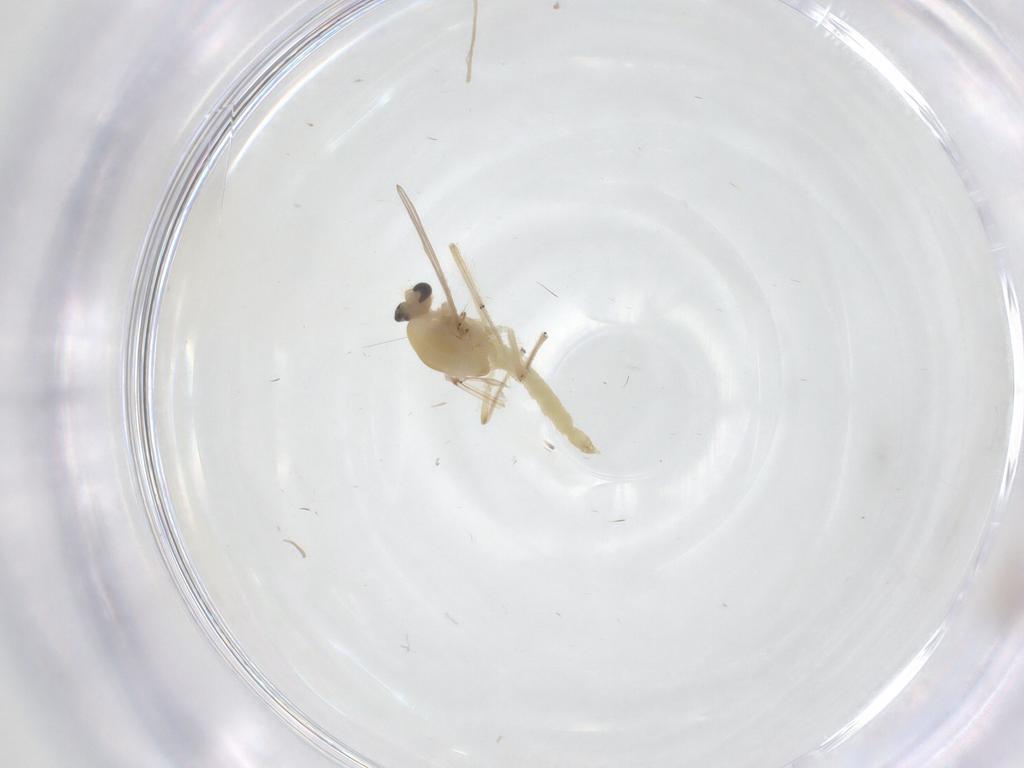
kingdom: Animalia
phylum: Arthropoda
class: Insecta
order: Diptera
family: Chironomidae
